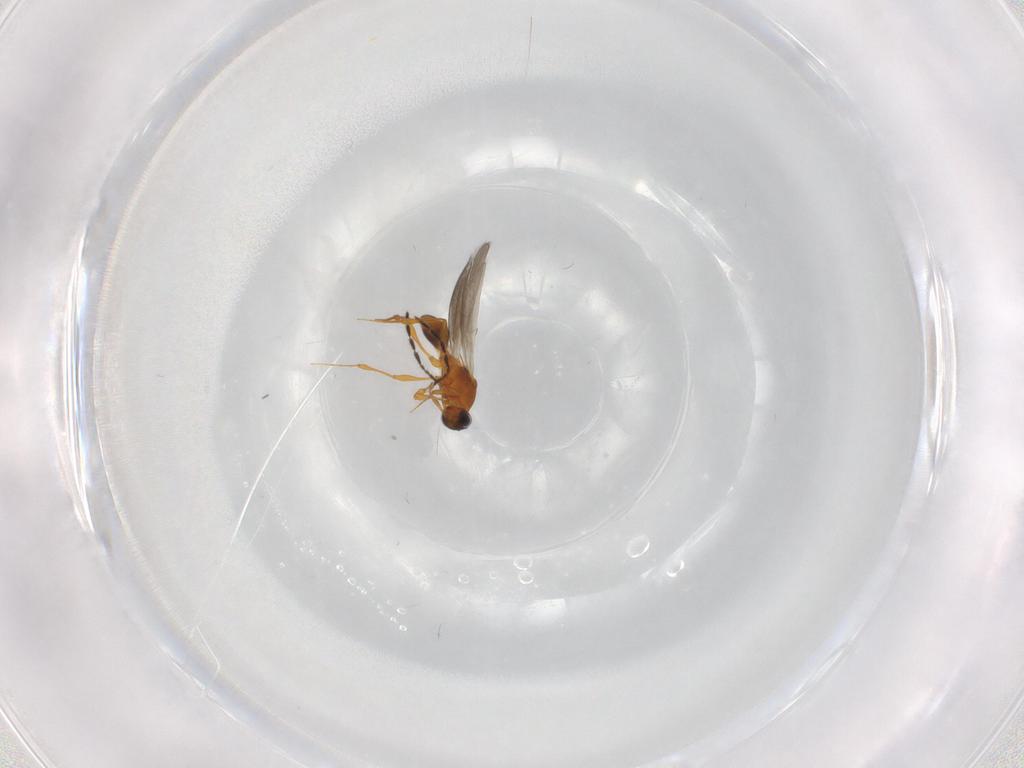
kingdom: Animalia
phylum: Arthropoda
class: Insecta
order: Hymenoptera
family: Platygastridae
